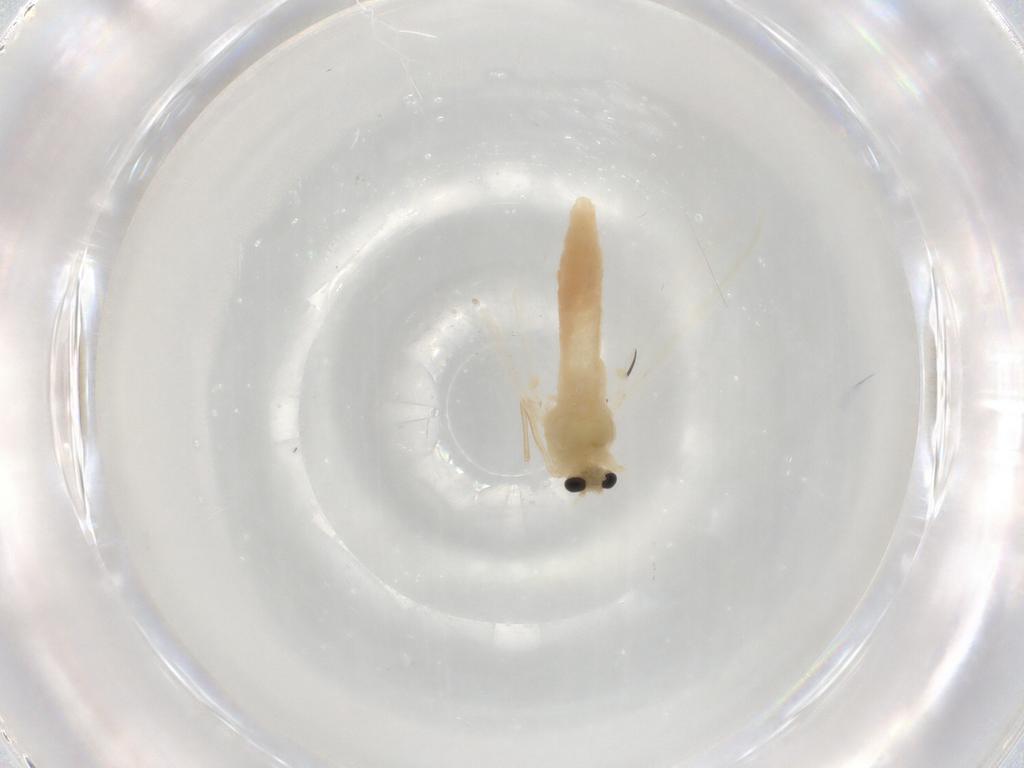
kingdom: Animalia
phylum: Arthropoda
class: Insecta
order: Diptera
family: Chironomidae
